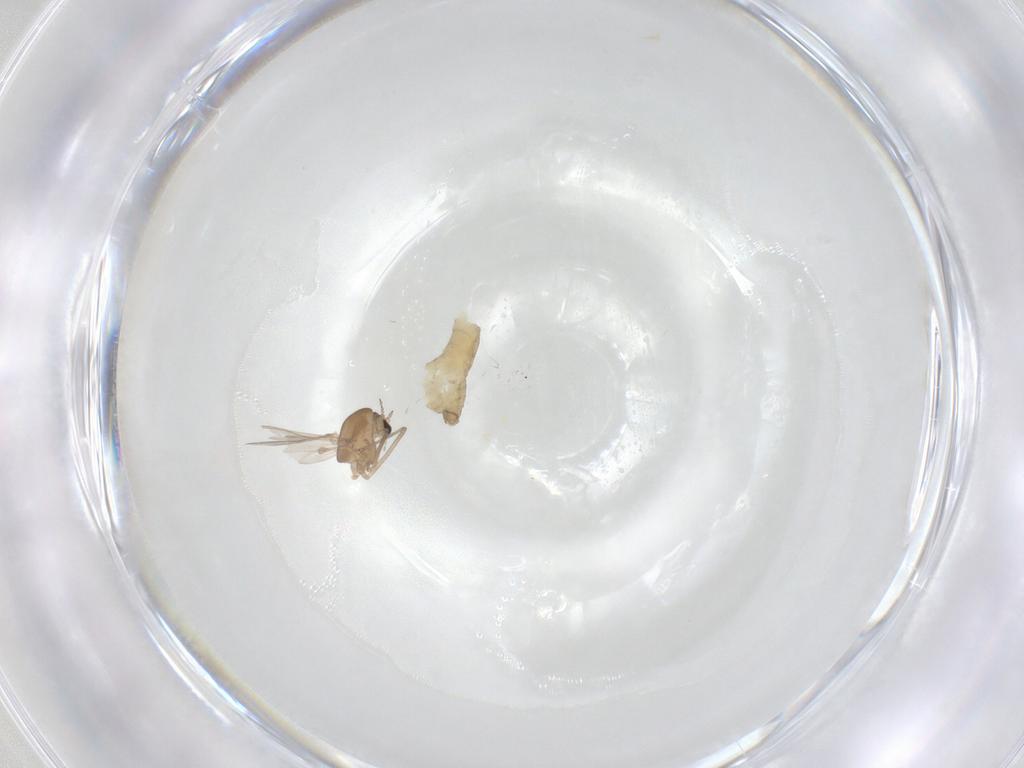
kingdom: Animalia
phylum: Arthropoda
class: Insecta
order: Diptera
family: Chironomidae
